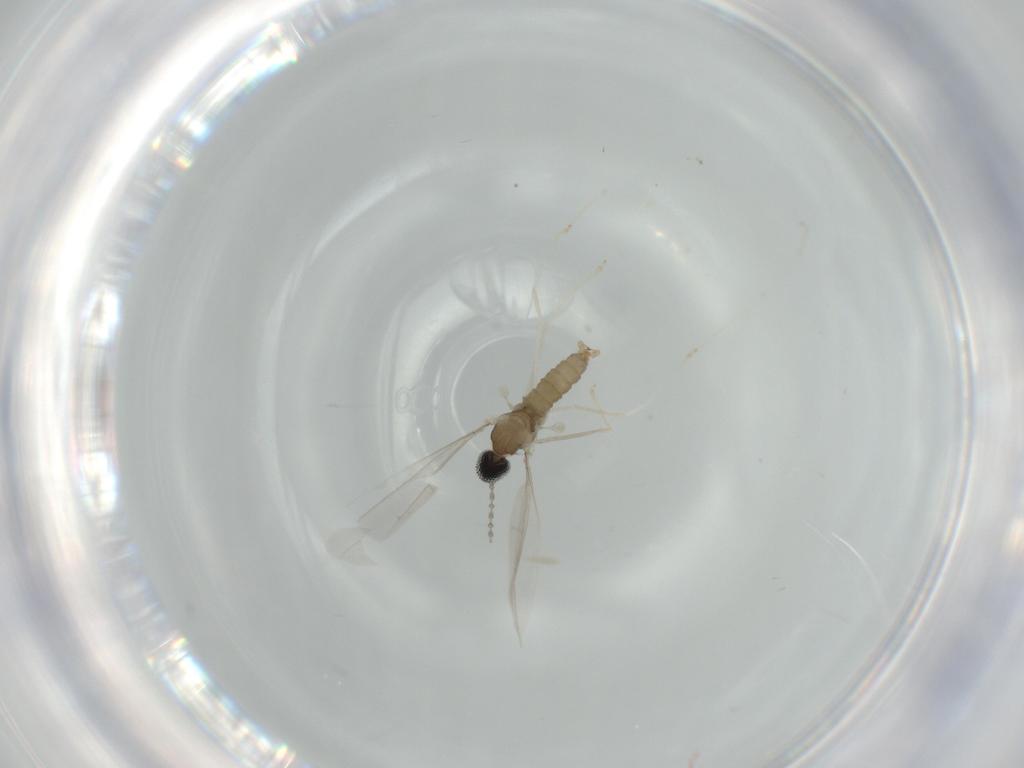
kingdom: Animalia
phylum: Arthropoda
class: Insecta
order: Diptera
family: Cecidomyiidae
